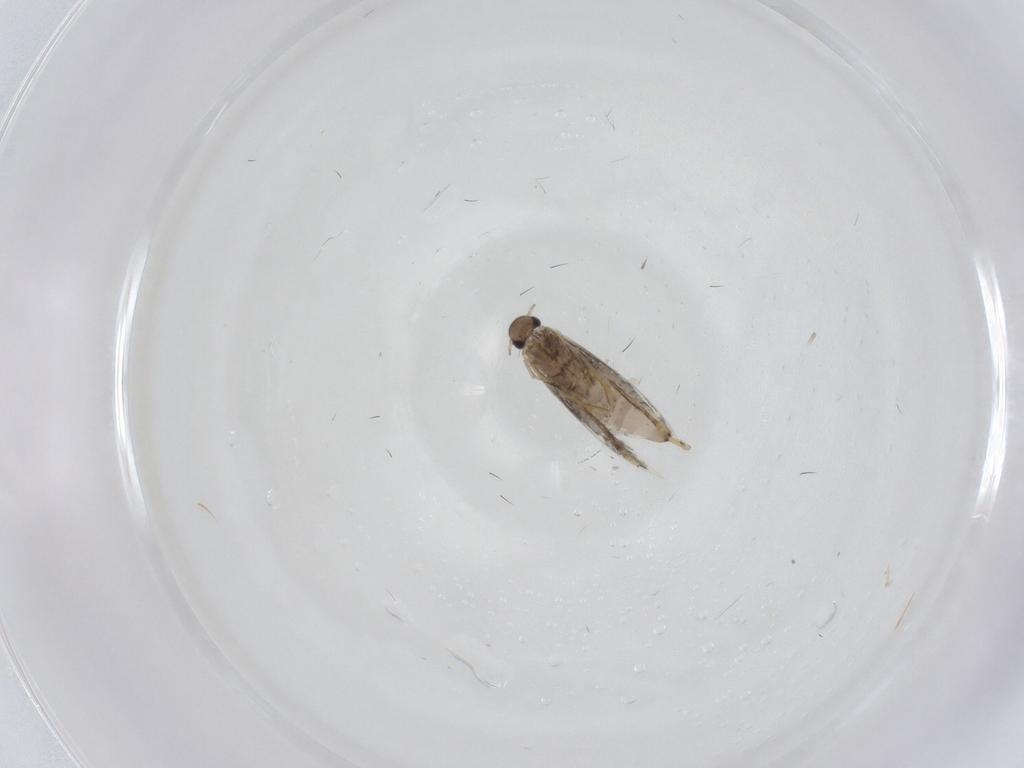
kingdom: Animalia
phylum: Arthropoda
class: Insecta
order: Lepidoptera
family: Heliozelidae
